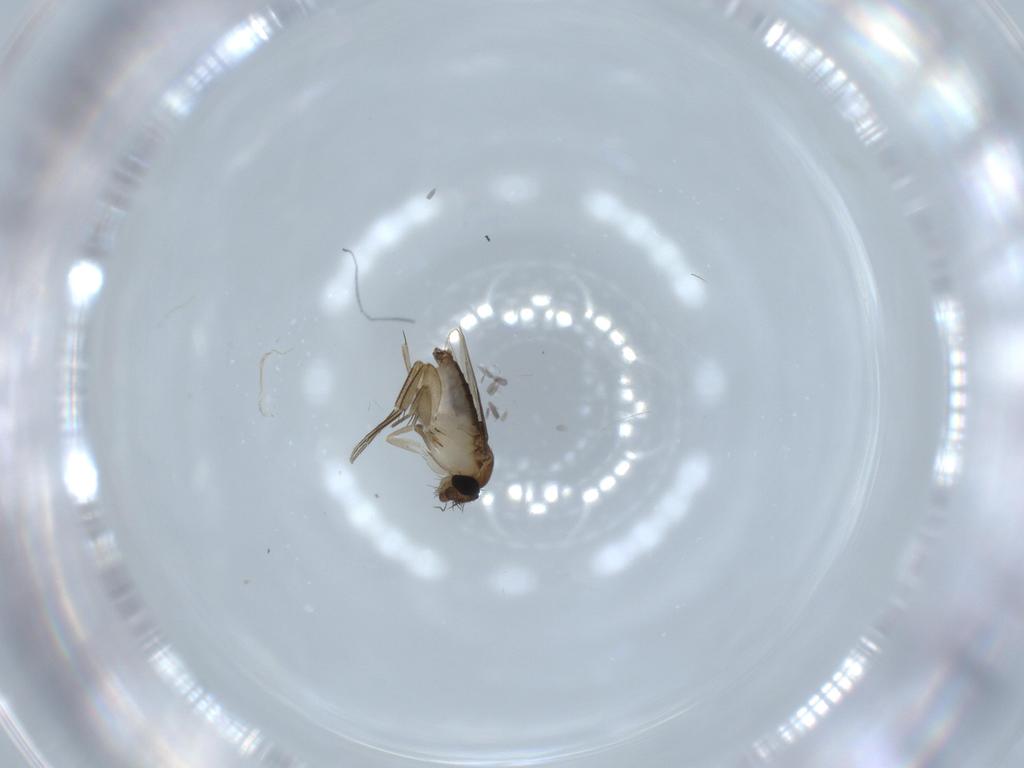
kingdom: Animalia
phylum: Arthropoda
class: Insecta
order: Diptera
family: Phoridae
